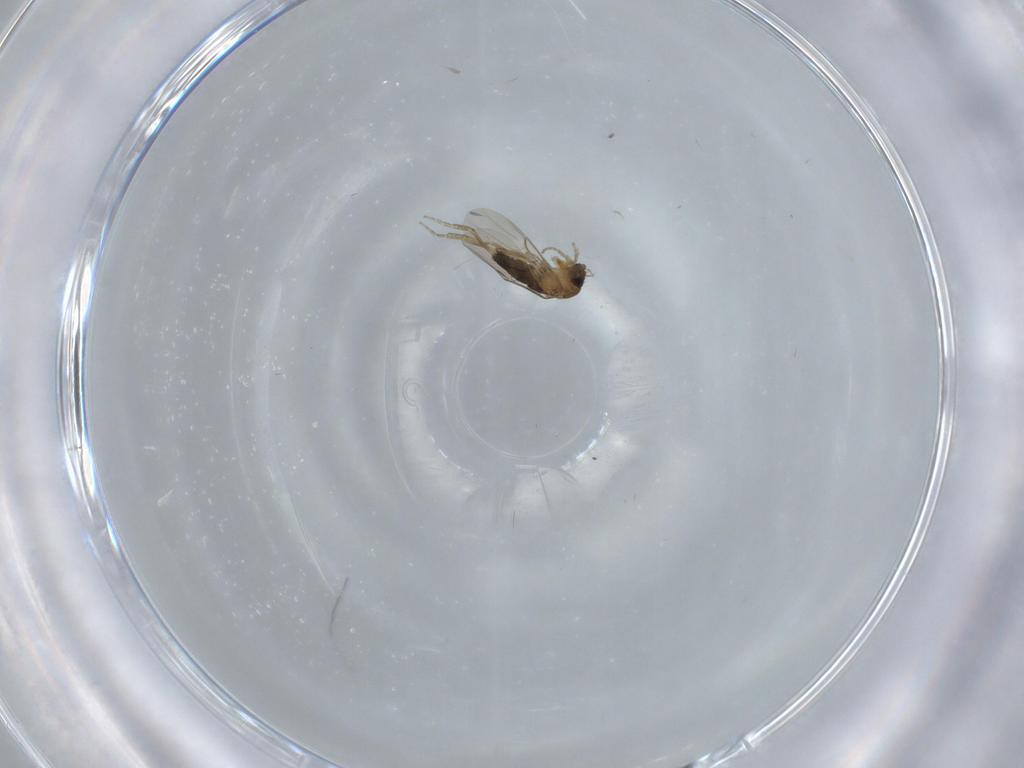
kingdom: Animalia
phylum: Arthropoda
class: Insecta
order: Diptera
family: Phoridae
